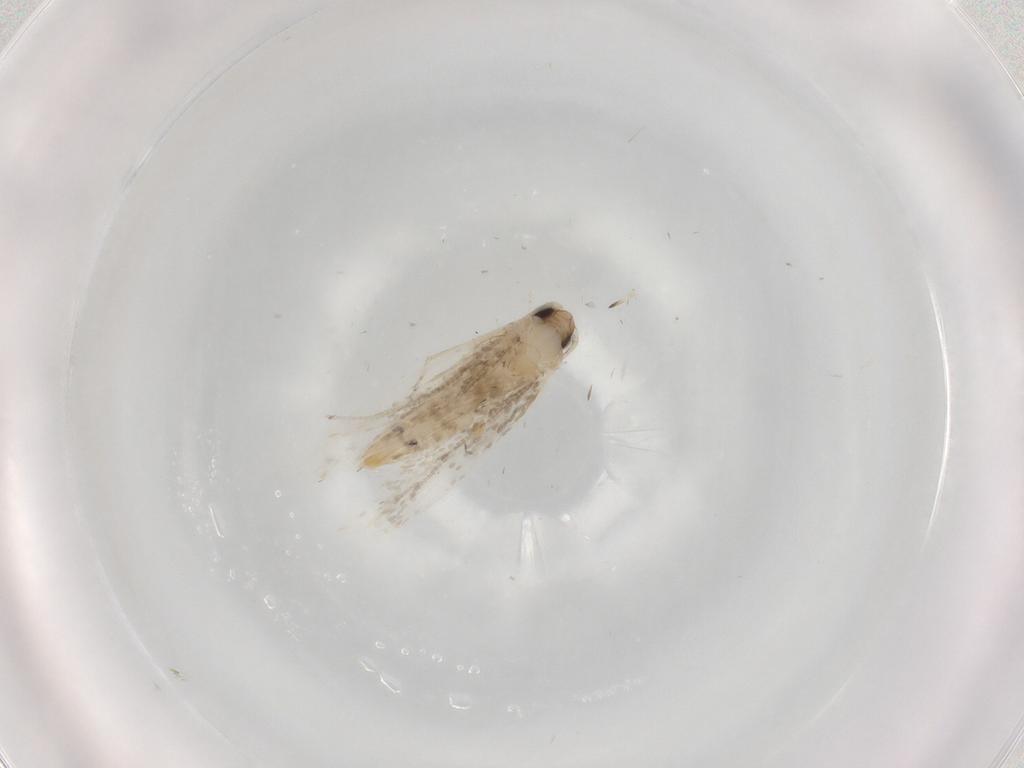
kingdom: Animalia
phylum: Arthropoda
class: Insecta
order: Lepidoptera
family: Tineidae
